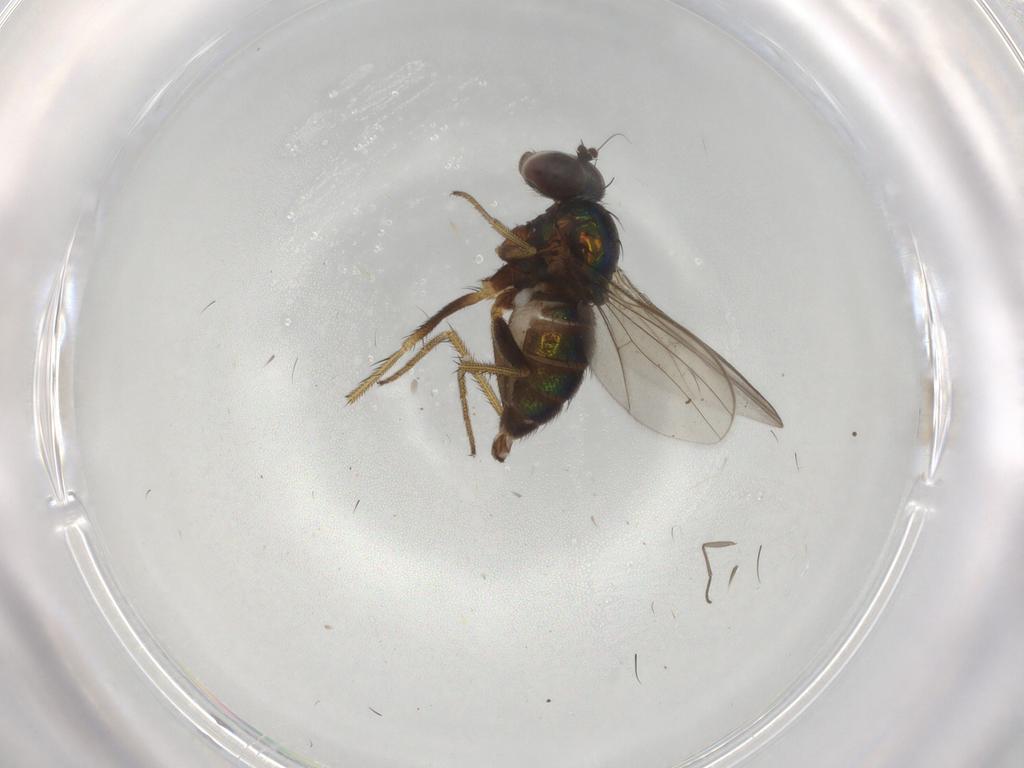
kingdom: Animalia
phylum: Arthropoda
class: Insecta
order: Diptera
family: Dolichopodidae
